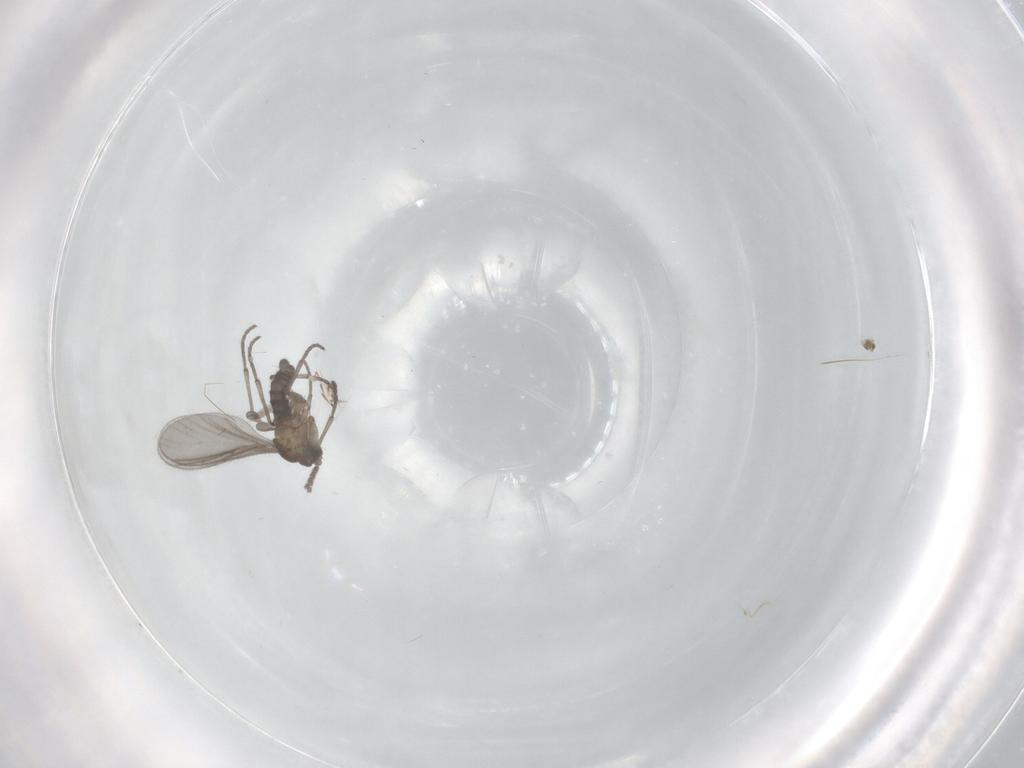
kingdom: Animalia
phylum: Arthropoda
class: Insecta
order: Diptera
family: Sciaridae
